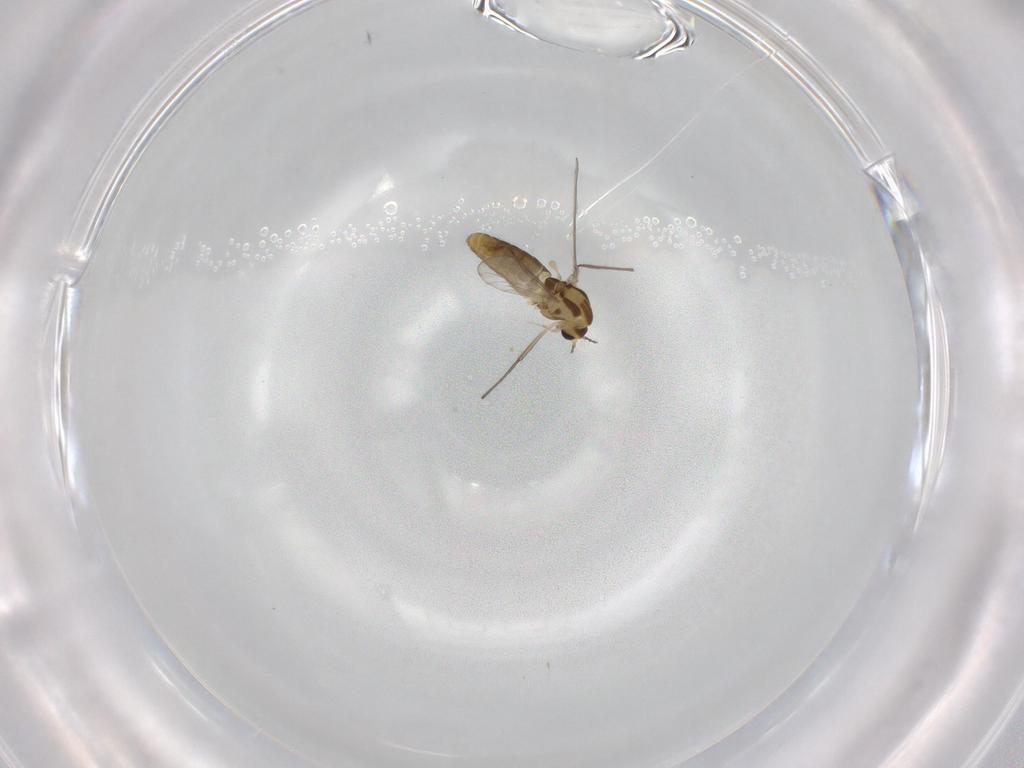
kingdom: Animalia
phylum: Arthropoda
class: Insecta
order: Diptera
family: Chironomidae
